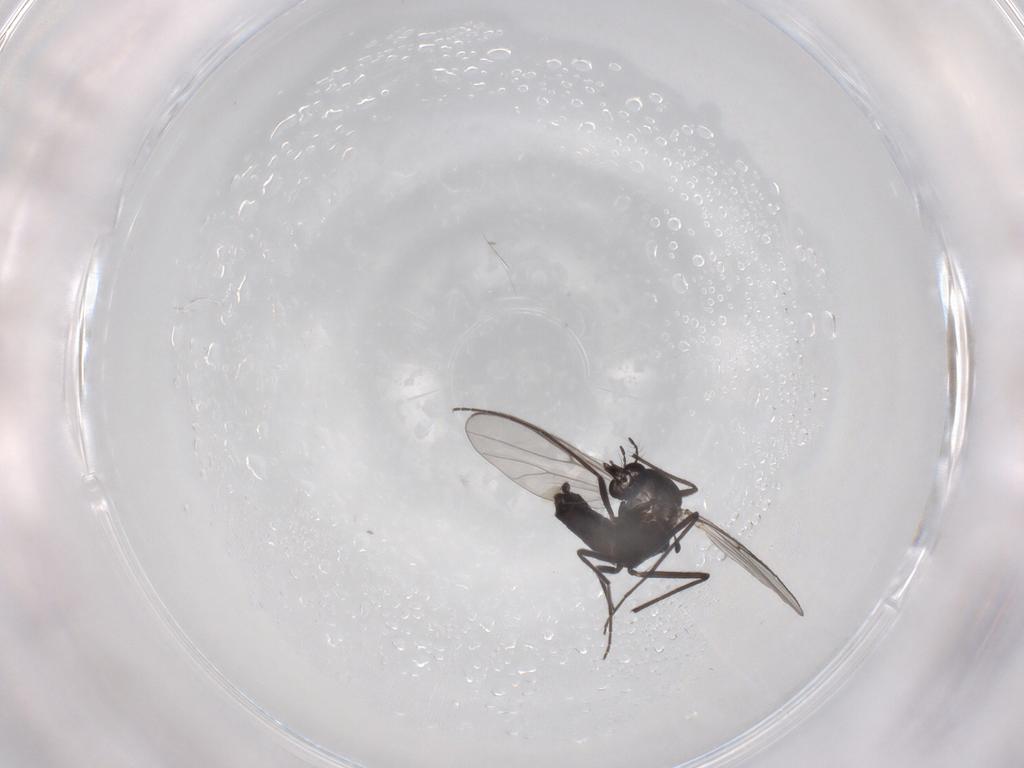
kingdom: Animalia
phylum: Arthropoda
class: Insecta
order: Diptera
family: Chironomidae
